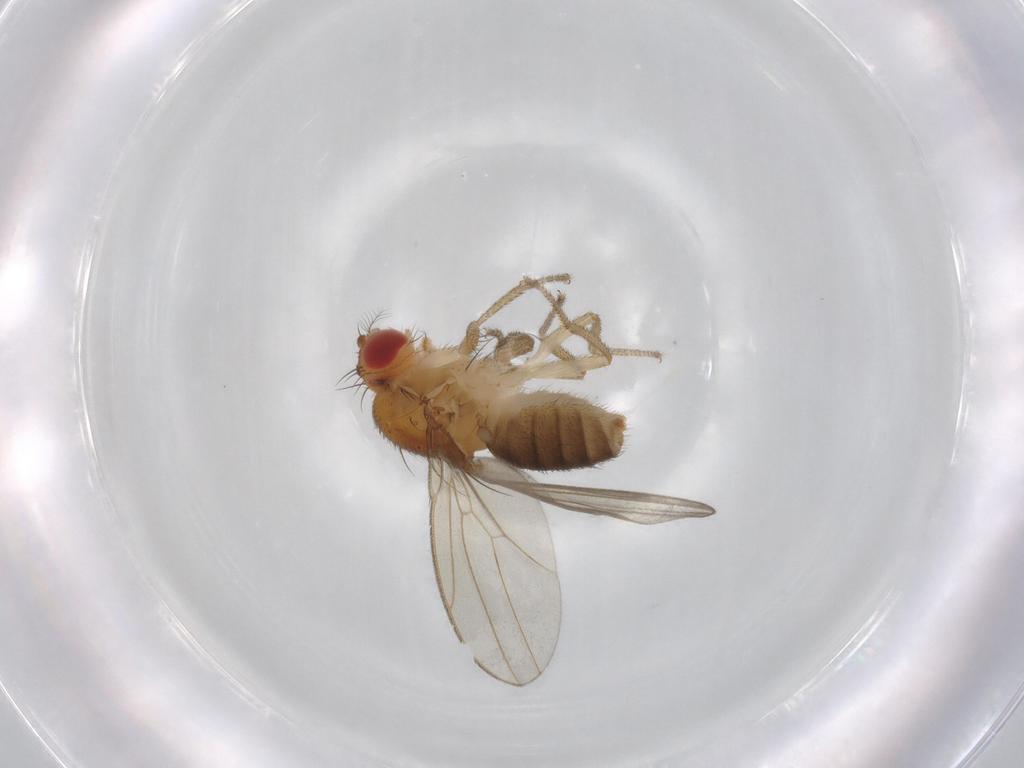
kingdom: Animalia
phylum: Arthropoda
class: Insecta
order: Diptera
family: Drosophilidae
